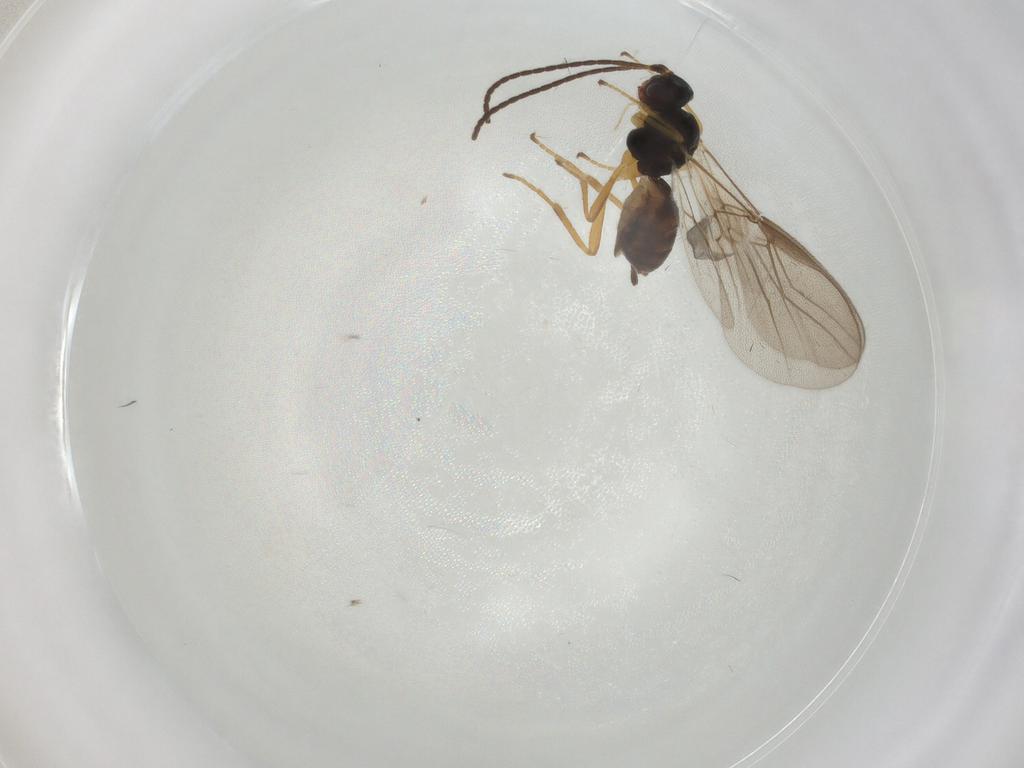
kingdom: Animalia
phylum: Arthropoda
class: Insecta
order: Hymenoptera
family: Braconidae
